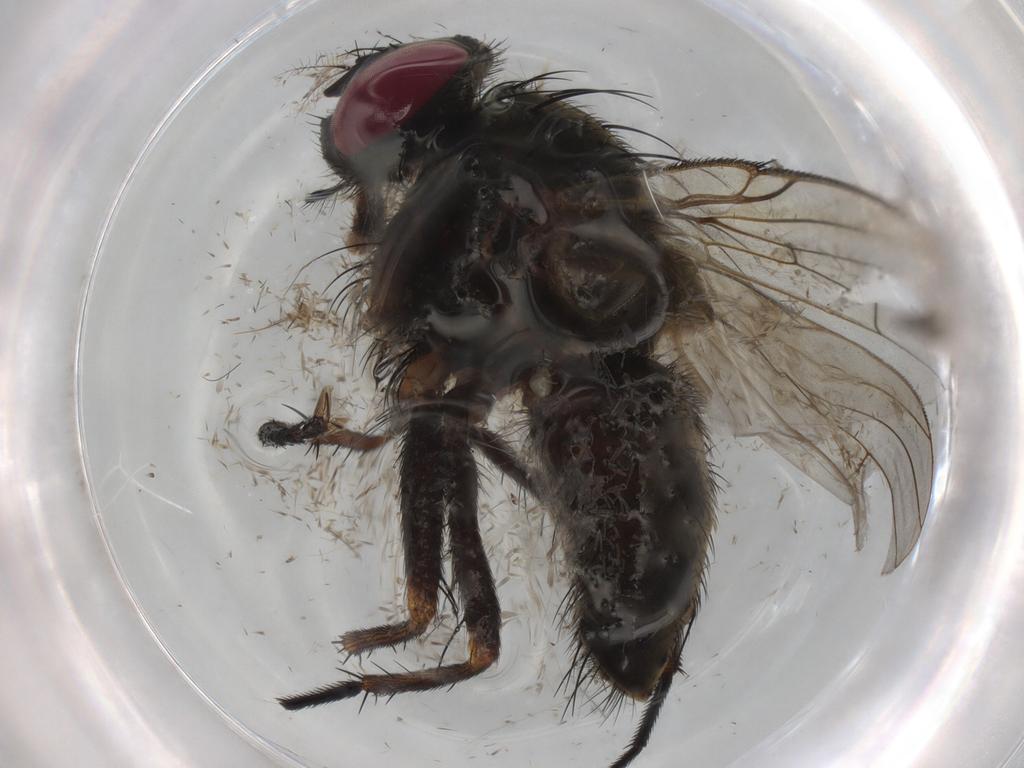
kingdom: Animalia
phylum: Arthropoda
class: Insecta
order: Diptera
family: Muscidae
